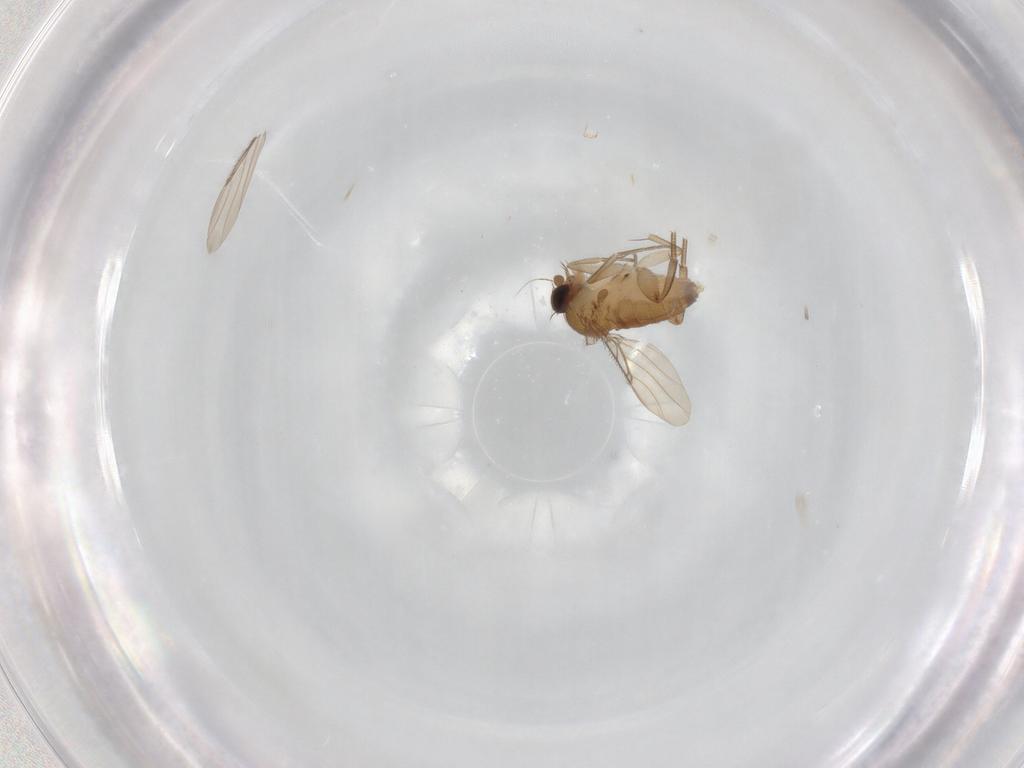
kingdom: Animalia
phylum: Arthropoda
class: Insecta
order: Diptera
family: Phoridae
